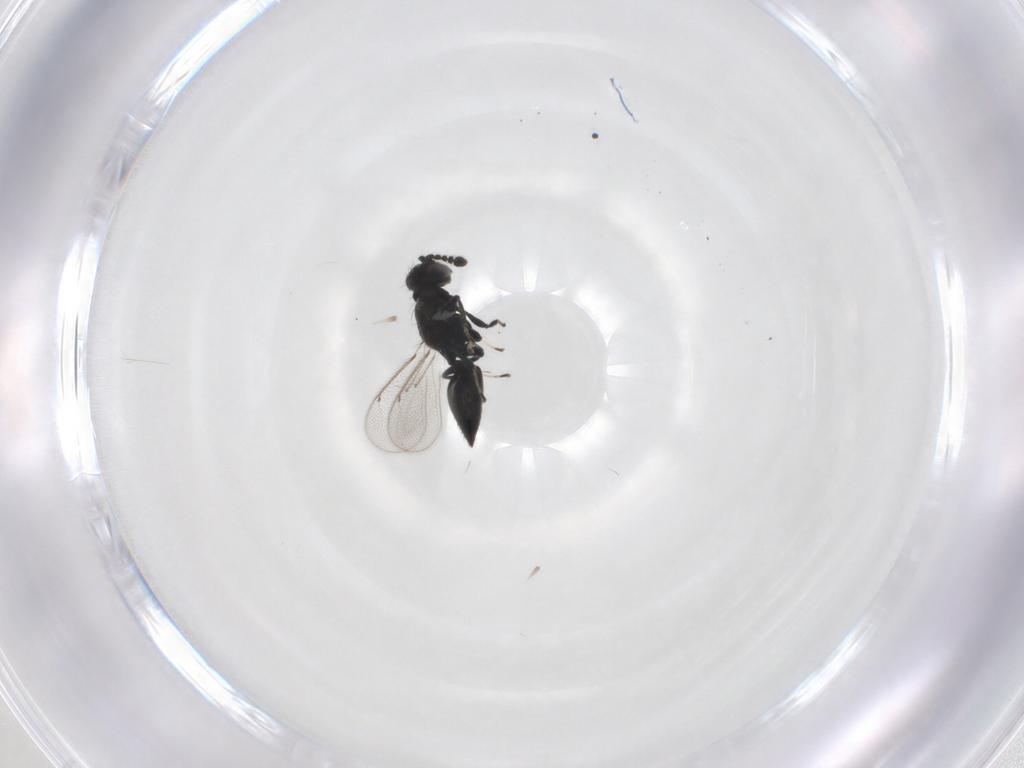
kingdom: Animalia
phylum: Arthropoda
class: Insecta
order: Hymenoptera
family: Eulophidae
